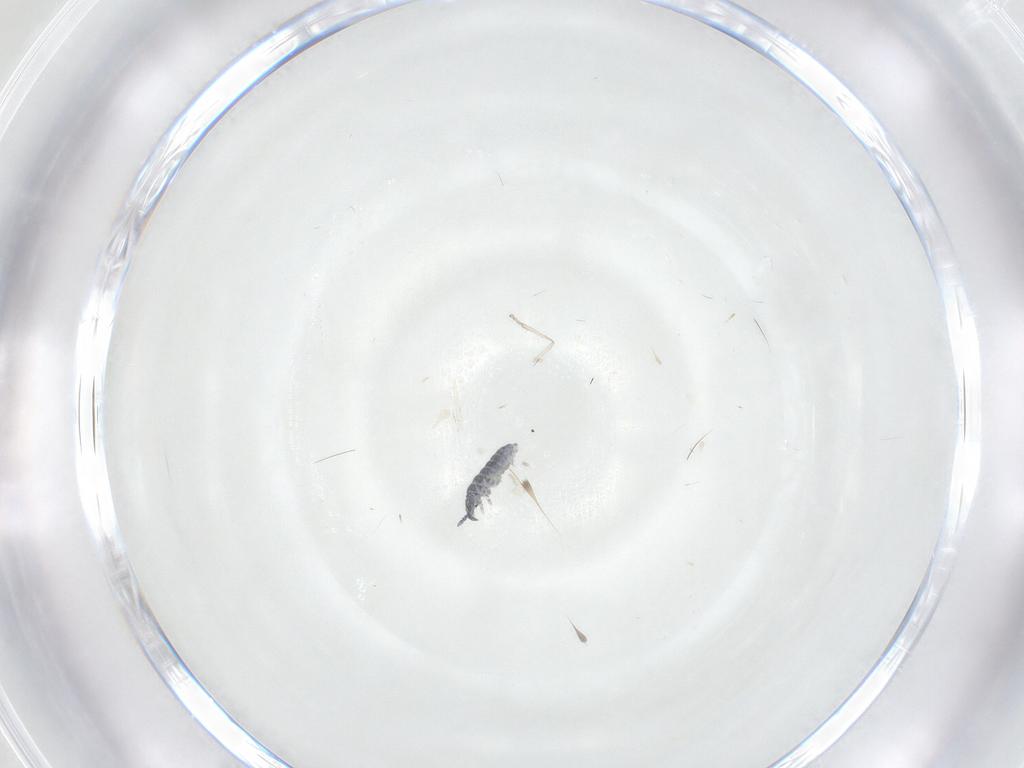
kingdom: Animalia
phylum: Arthropoda
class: Collembola
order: Poduromorpha
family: Hypogastruridae
